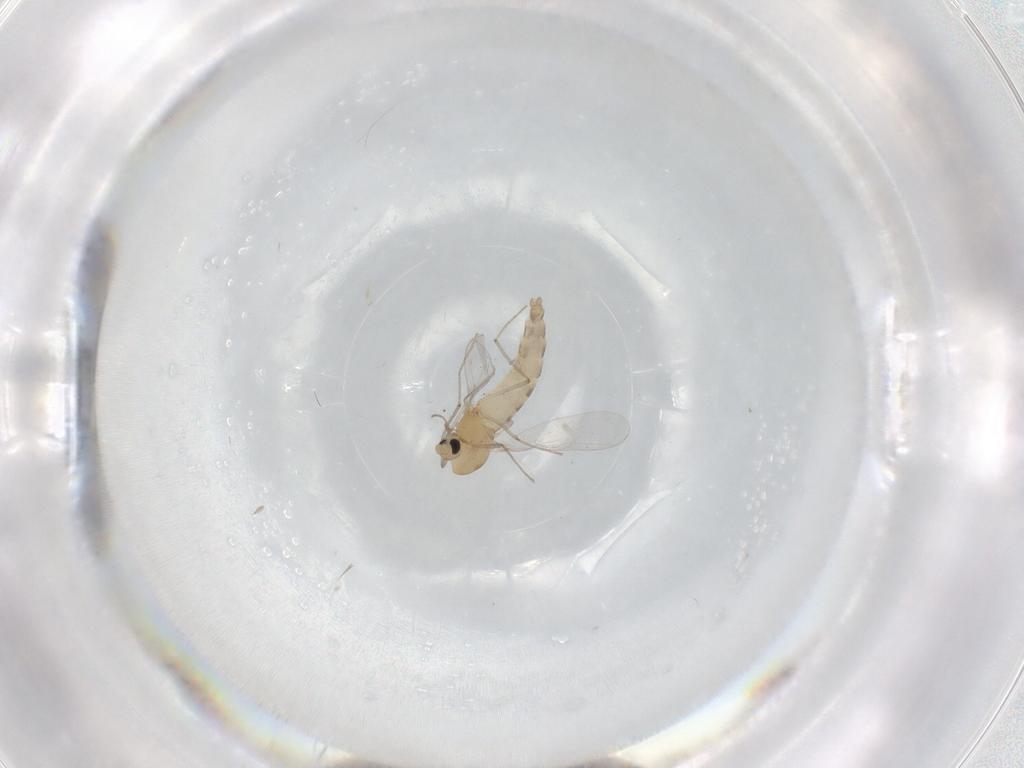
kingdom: Animalia
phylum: Arthropoda
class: Insecta
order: Diptera
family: Chironomidae
